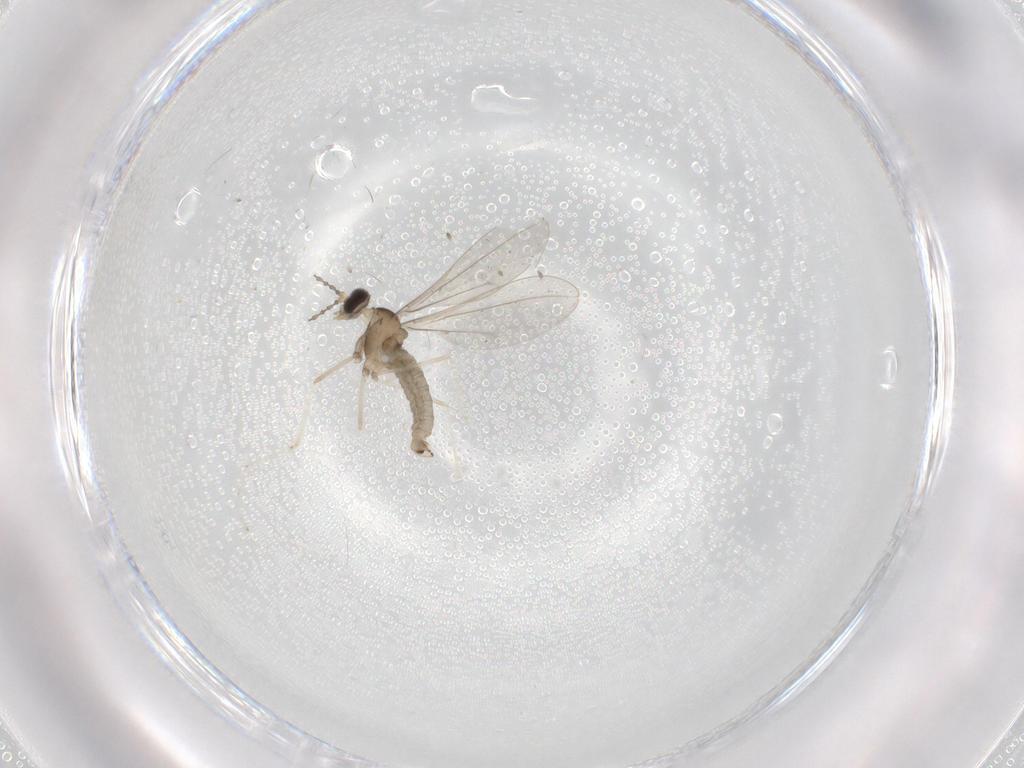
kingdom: Animalia
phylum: Arthropoda
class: Insecta
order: Diptera
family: Cecidomyiidae
